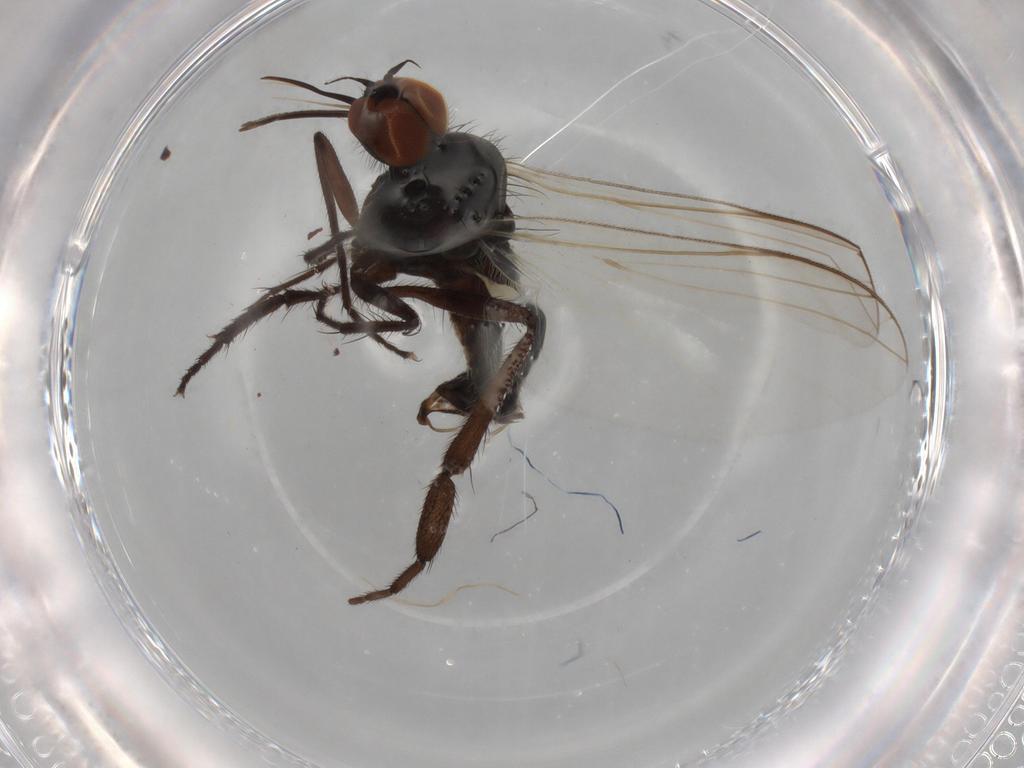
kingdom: Animalia
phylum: Arthropoda
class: Insecta
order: Diptera
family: Empididae
